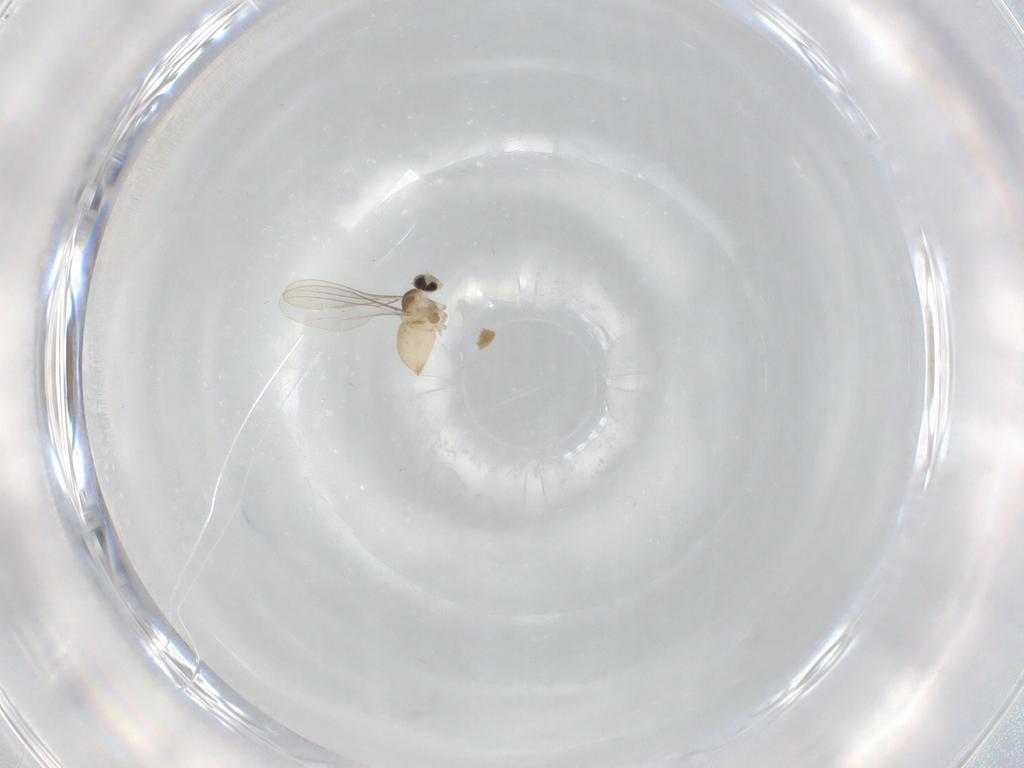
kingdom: Animalia
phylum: Arthropoda
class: Insecta
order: Diptera
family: Cecidomyiidae
